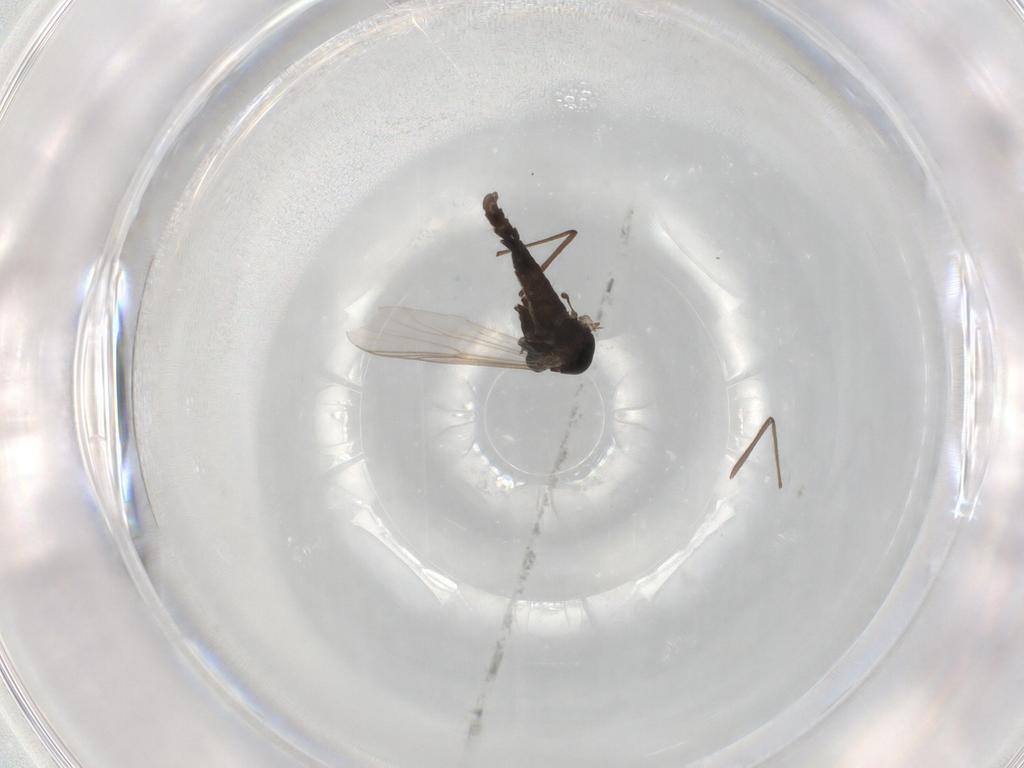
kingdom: Animalia
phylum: Arthropoda
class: Insecta
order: Diptera
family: Chironomidae
